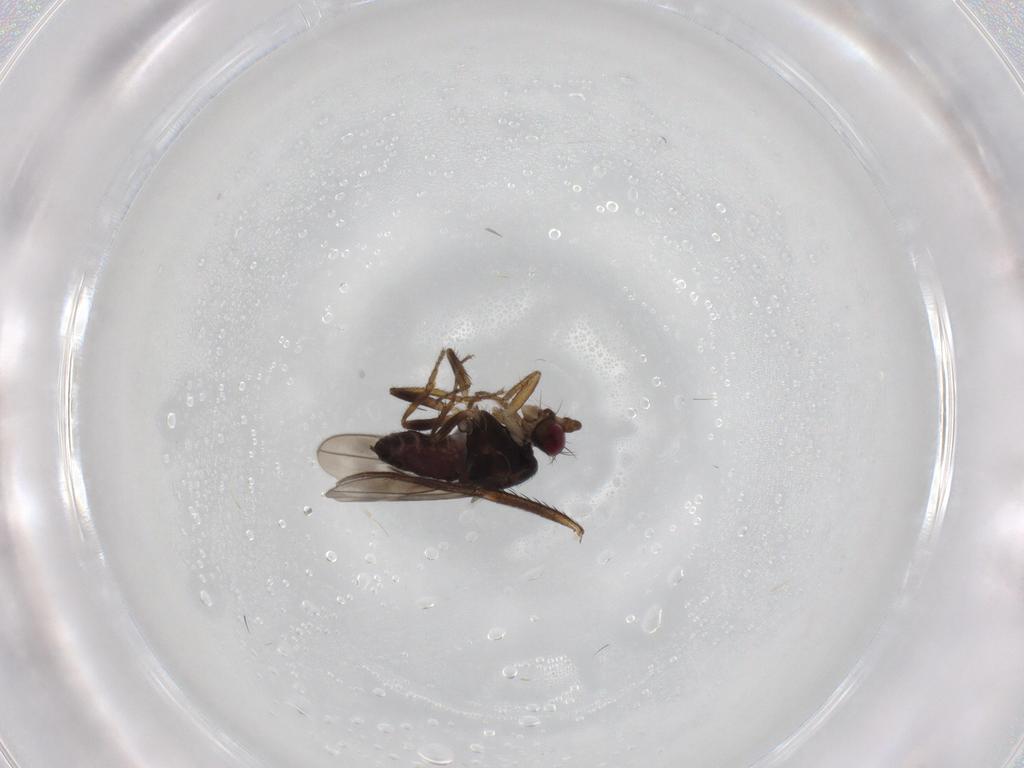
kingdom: Animalia
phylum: Arthropoda
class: Insecta
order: Diptera
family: Sphaeroceridae
